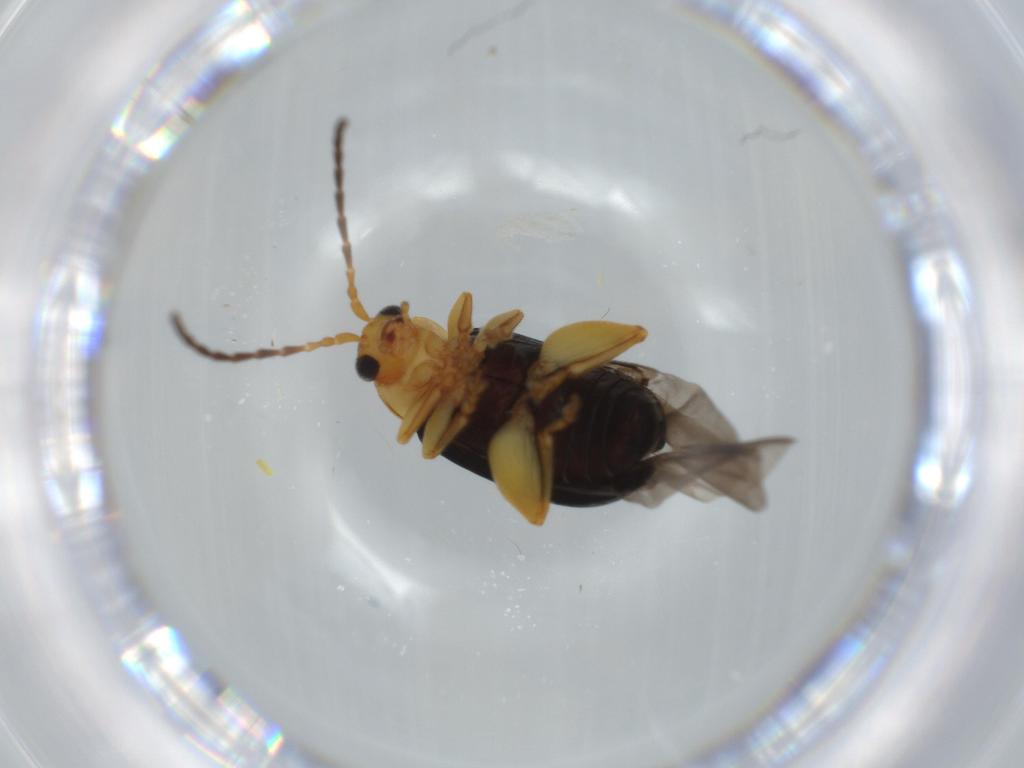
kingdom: Animalia
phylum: Arthropoda
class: Insecta
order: Coleoptera
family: Chrysomelidae
